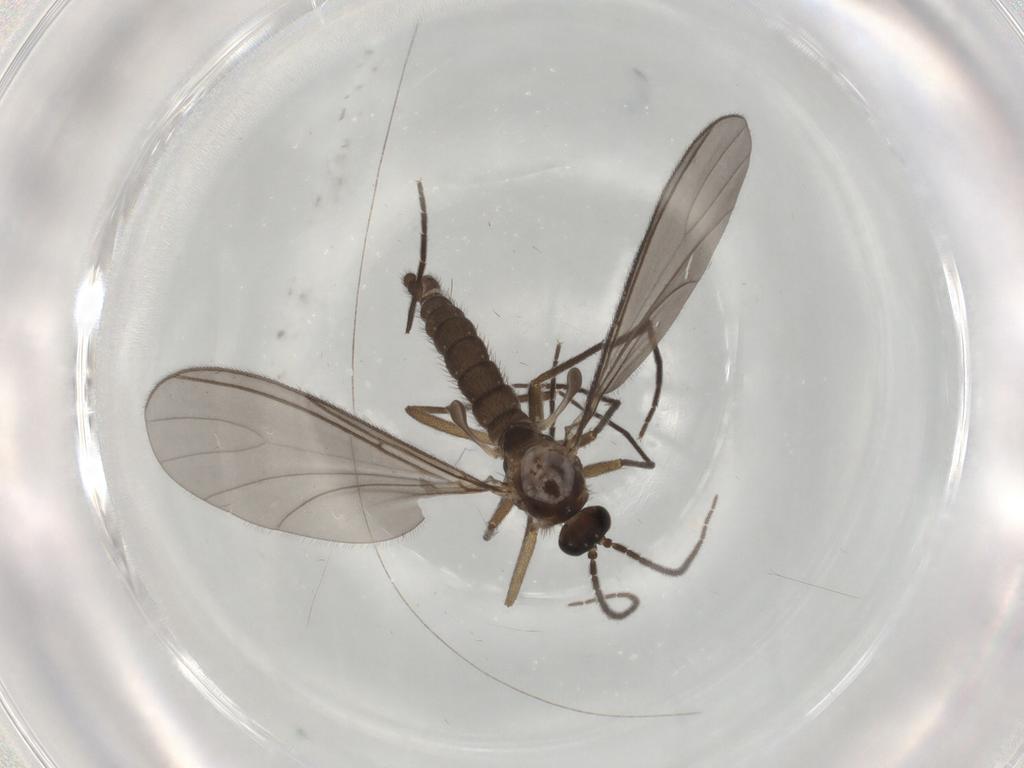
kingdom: Animalia
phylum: Arthropoda
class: Insecta
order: Diptera
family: Sciaridae
